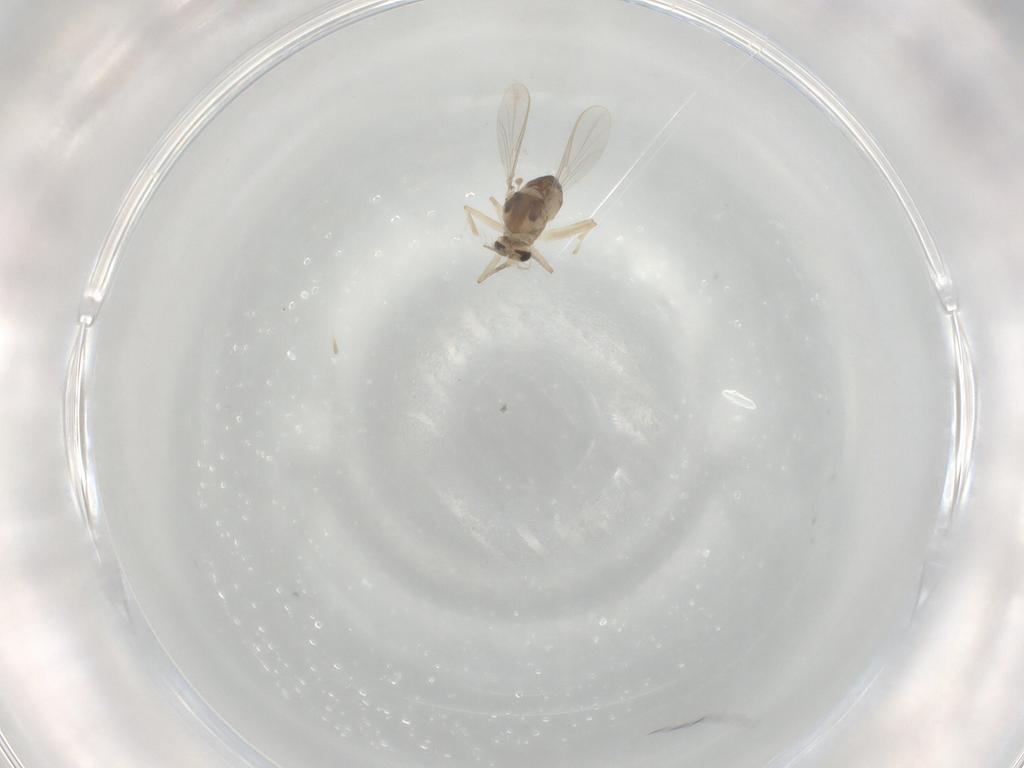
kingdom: Animalia
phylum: Arthropoda
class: Insecta
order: Diptera
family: Chironomidae
